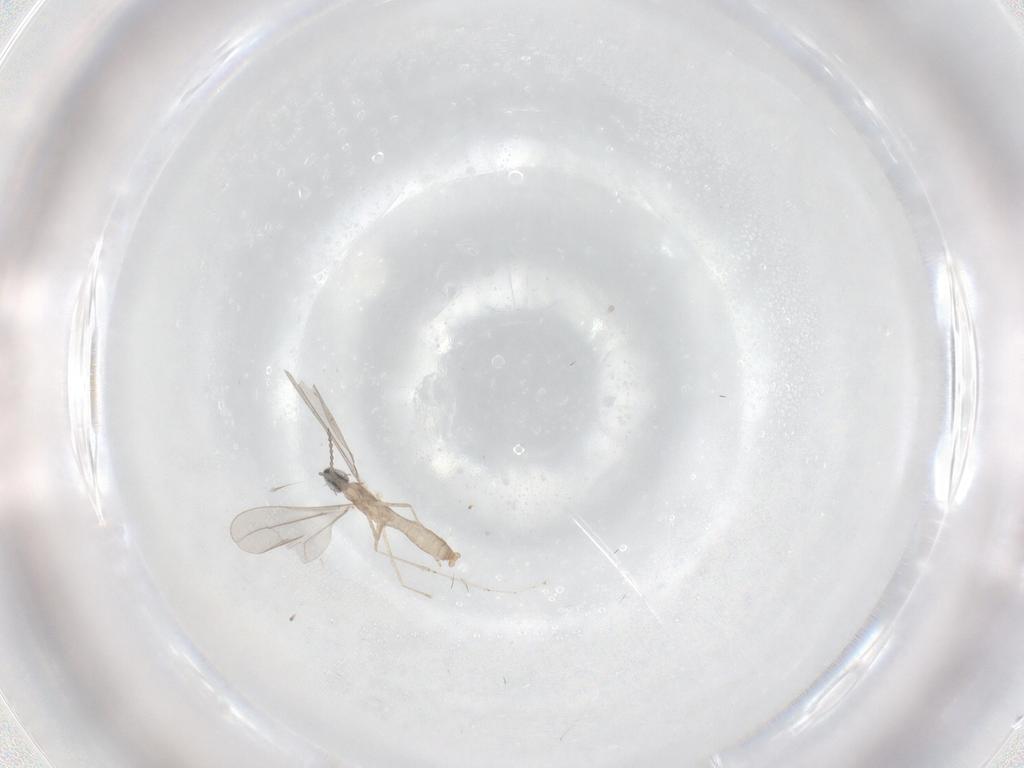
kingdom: Animalia
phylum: Arthropoda
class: Insecta
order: Diptera
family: Cecidomyiidae
